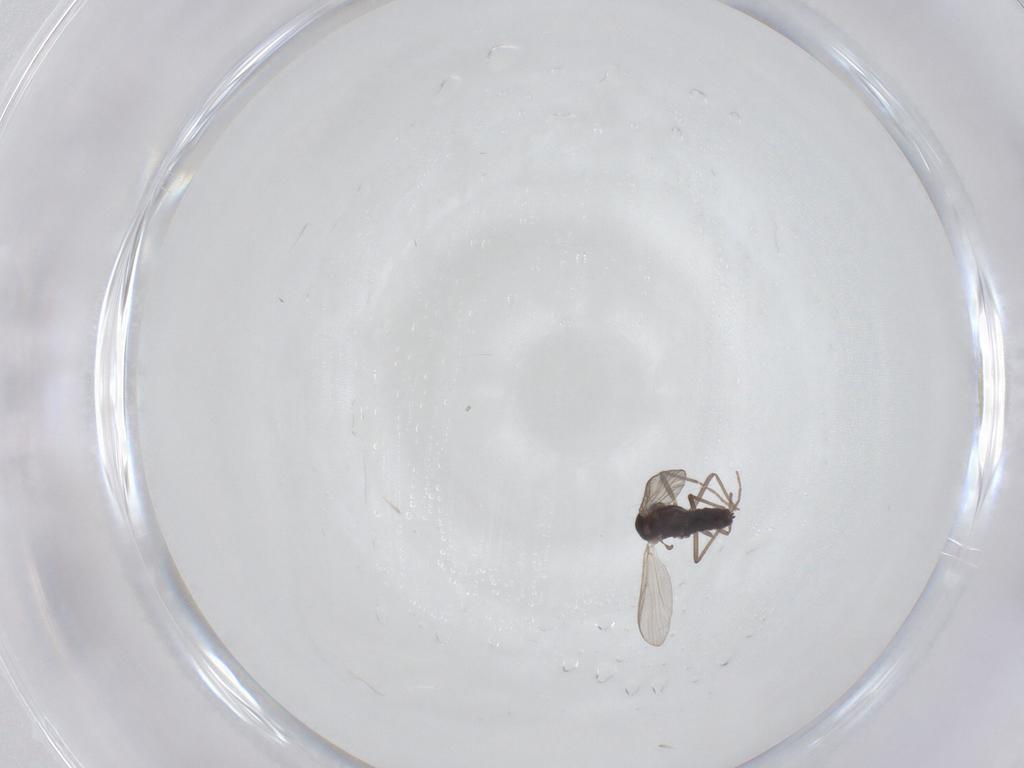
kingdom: Animalia
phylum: Arthropoda
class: Insecta
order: Diptera
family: Chironomidae
